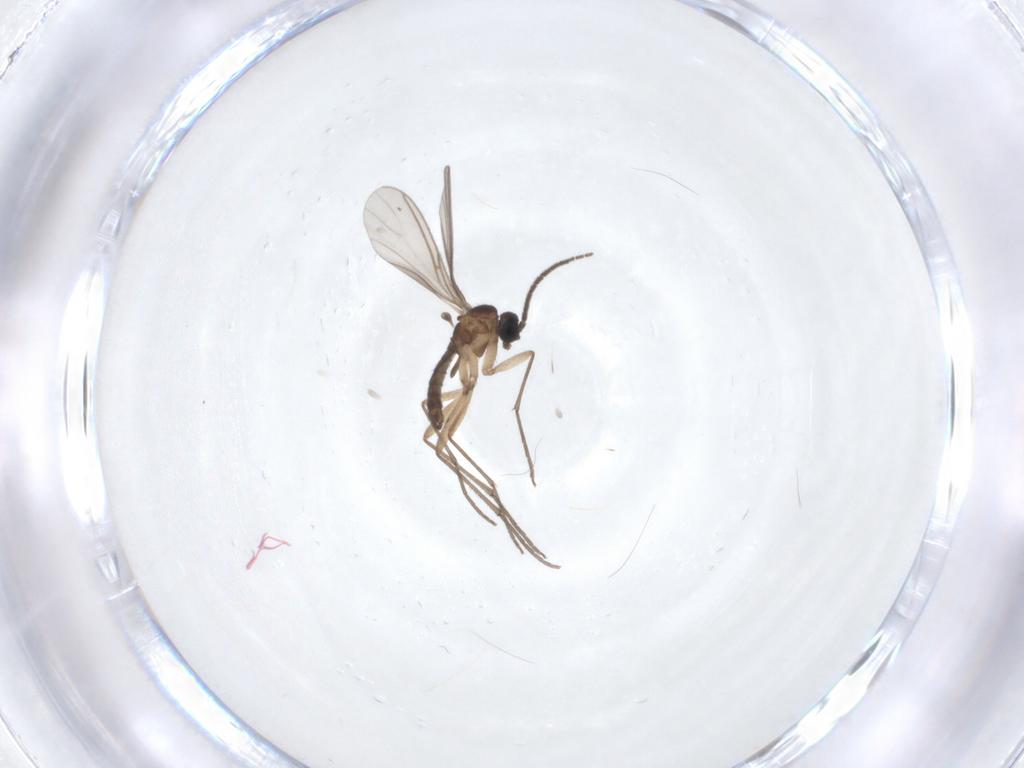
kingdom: Animalia
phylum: Arthropoda
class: Insecta
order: Diptera
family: Sciaridae
